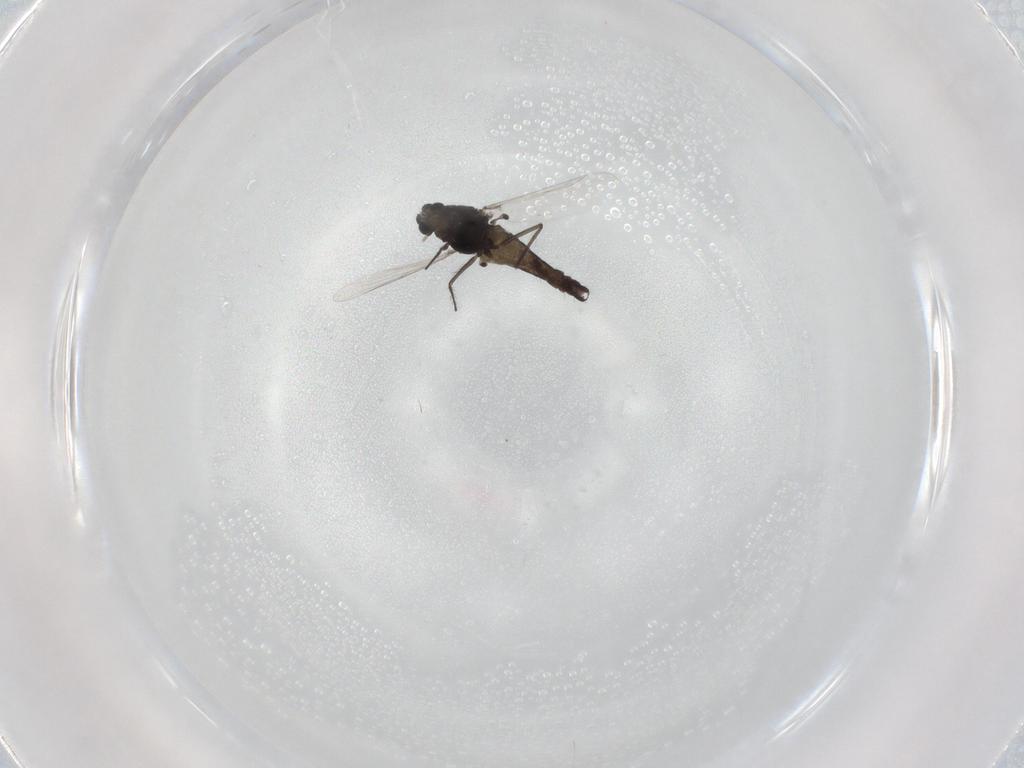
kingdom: Animalia
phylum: Arthropoda
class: Insecta
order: Diptera
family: Chironomidae
